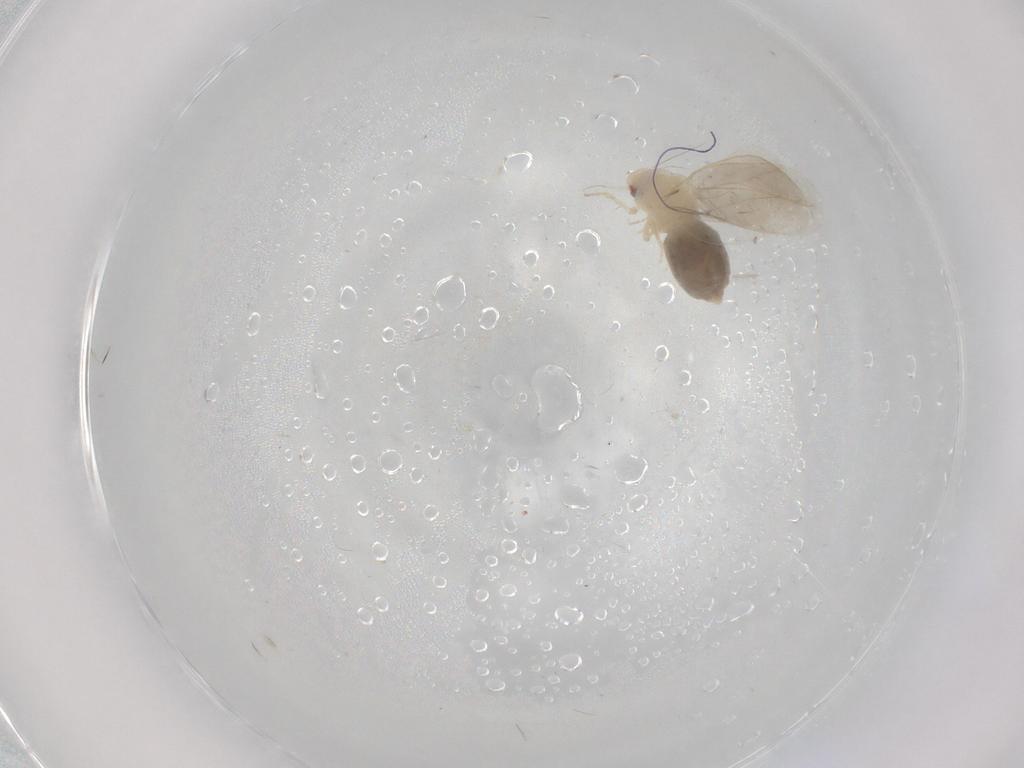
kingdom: Animalia
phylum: Arthropoda
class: Insecta
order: Hemiptera
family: Aleyrodidae
